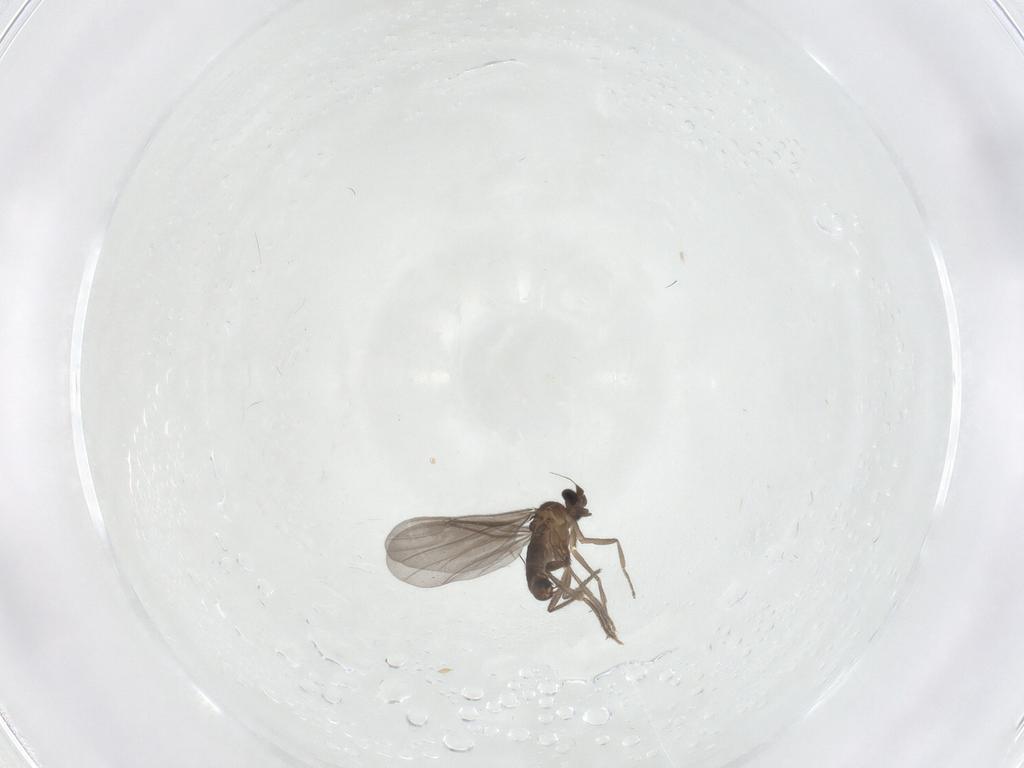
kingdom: Animalia
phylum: Arthropoda
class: Insecta
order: Diptera
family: Phoridae
